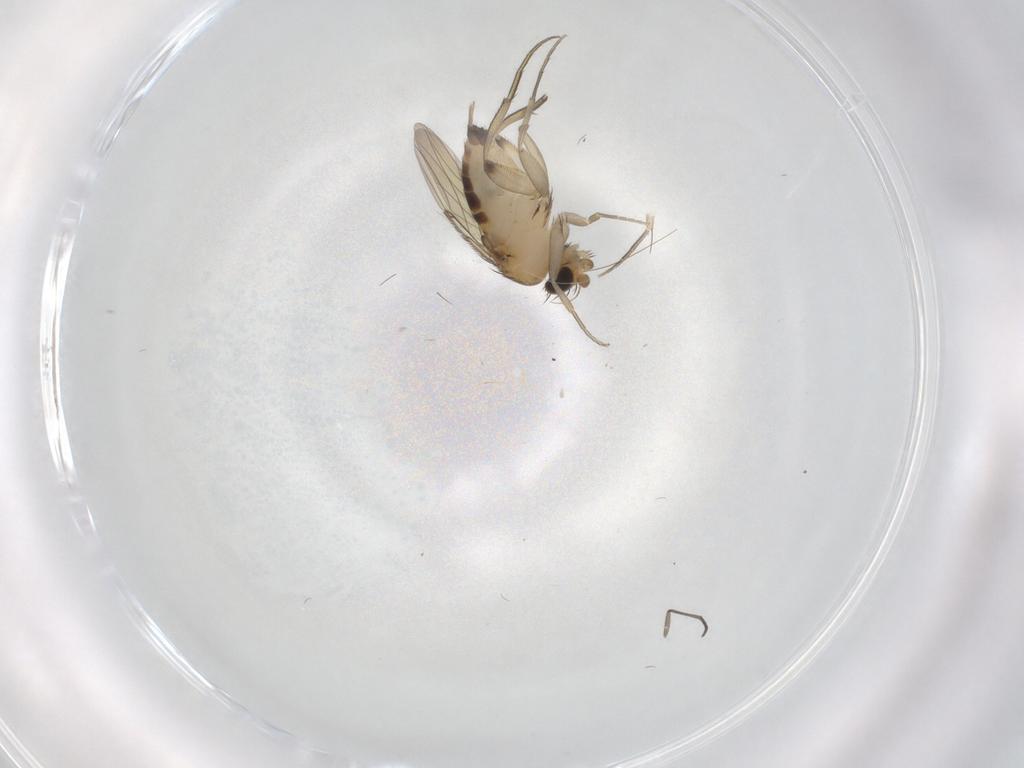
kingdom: Animalia
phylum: Arthropoda
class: Insecta
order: Diptera
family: Phoridae
